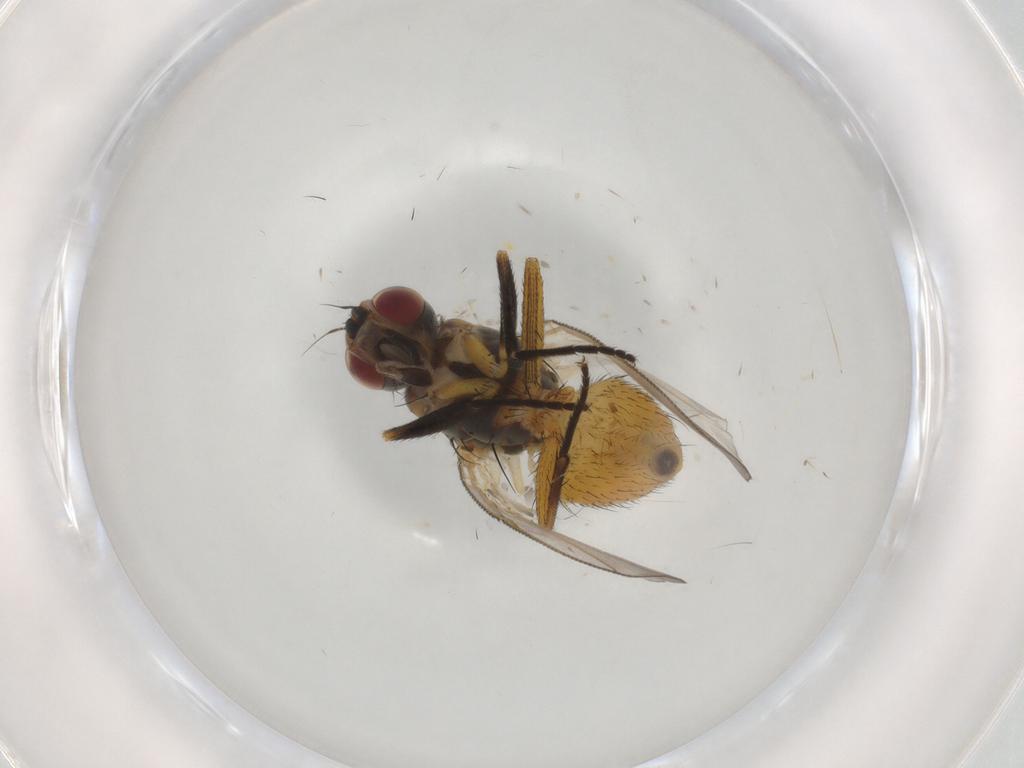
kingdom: Animalia
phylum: Arthropoda
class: Insecta
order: Diptera
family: Muscidae
